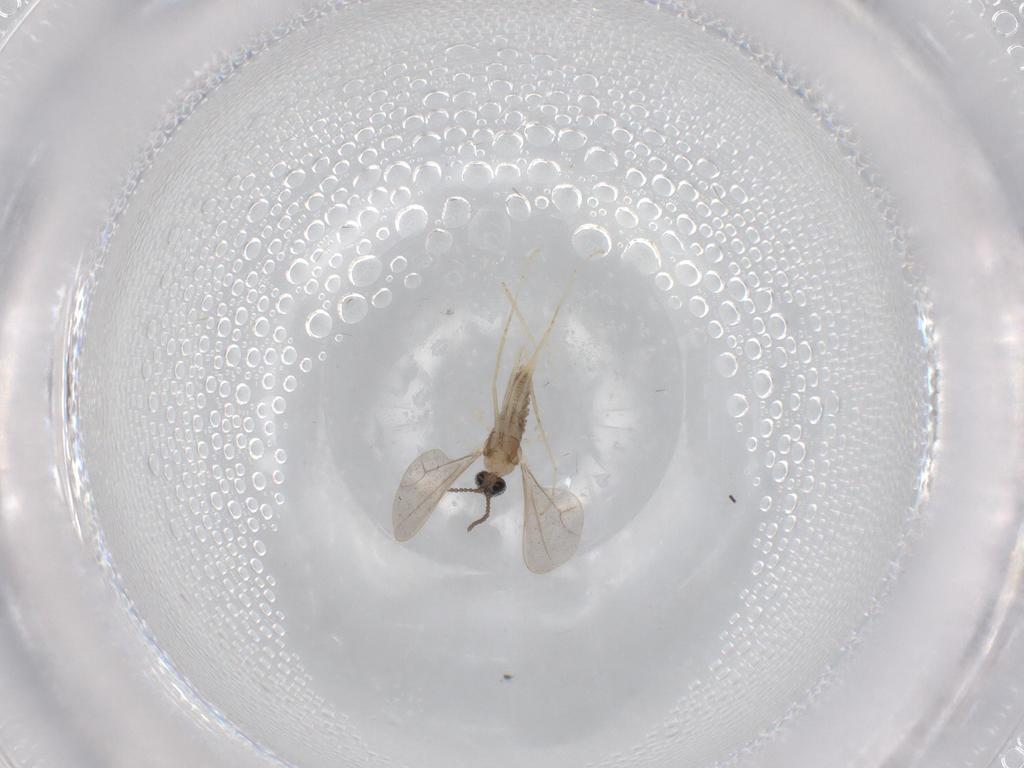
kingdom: Animalia
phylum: Arthropoda
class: Insecta
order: Diptera
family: Cecidomyiidae
